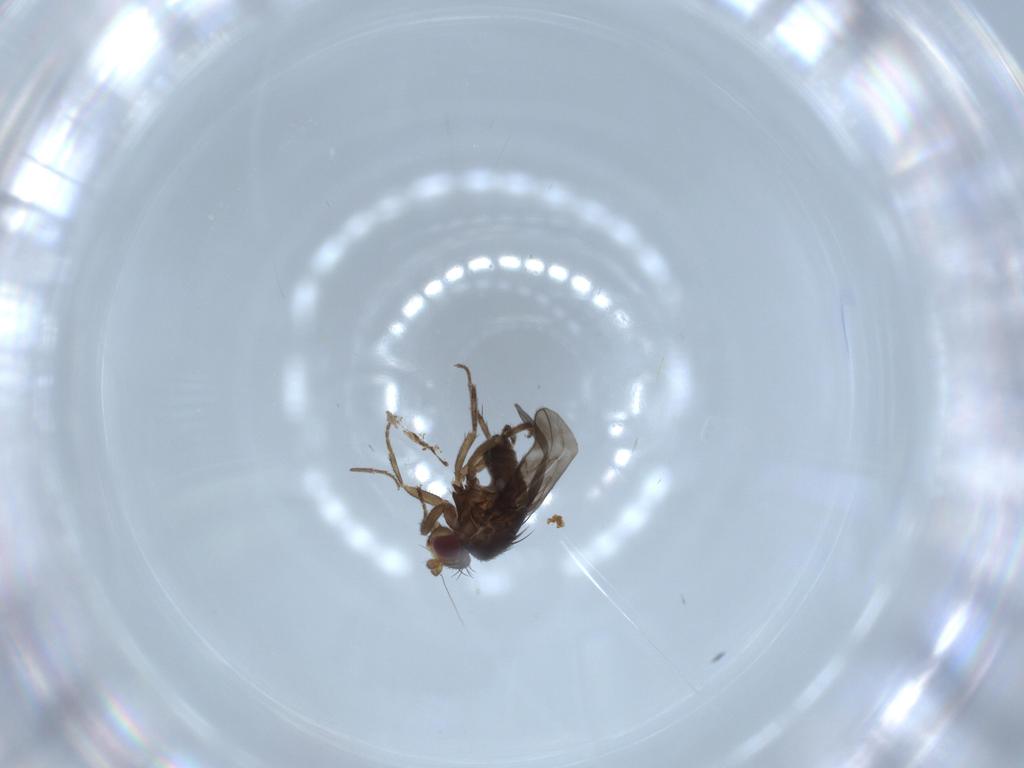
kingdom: Animalia
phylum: Arthropoda
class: Insecta
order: Diptera
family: Sphaeroceridae
